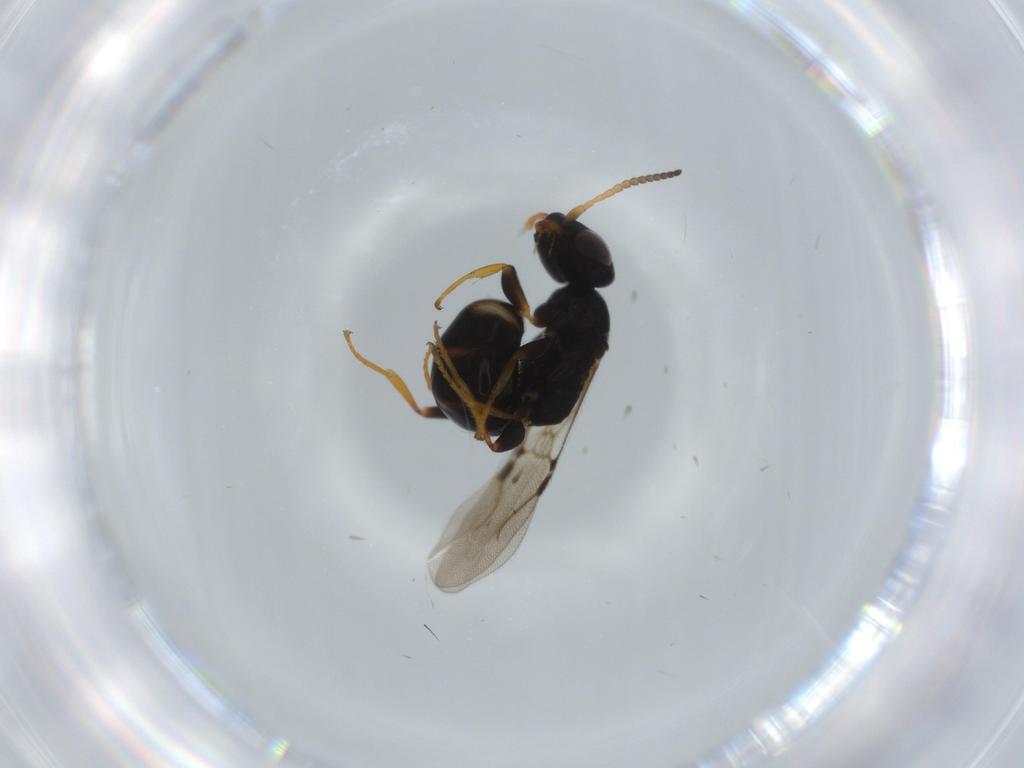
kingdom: Animalia
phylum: Arthropoda
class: Insecta
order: Hymenoptera
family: Bethylidae
